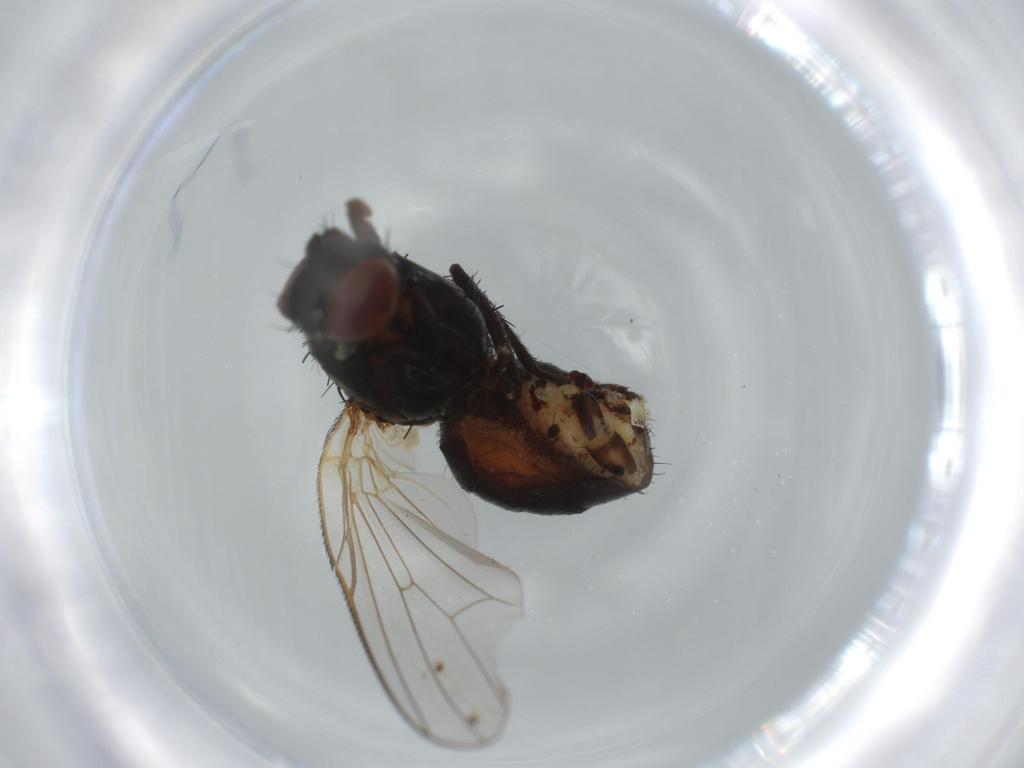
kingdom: Animalia
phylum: Arthropoda
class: Insecta
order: Diptera
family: Sciaridae
